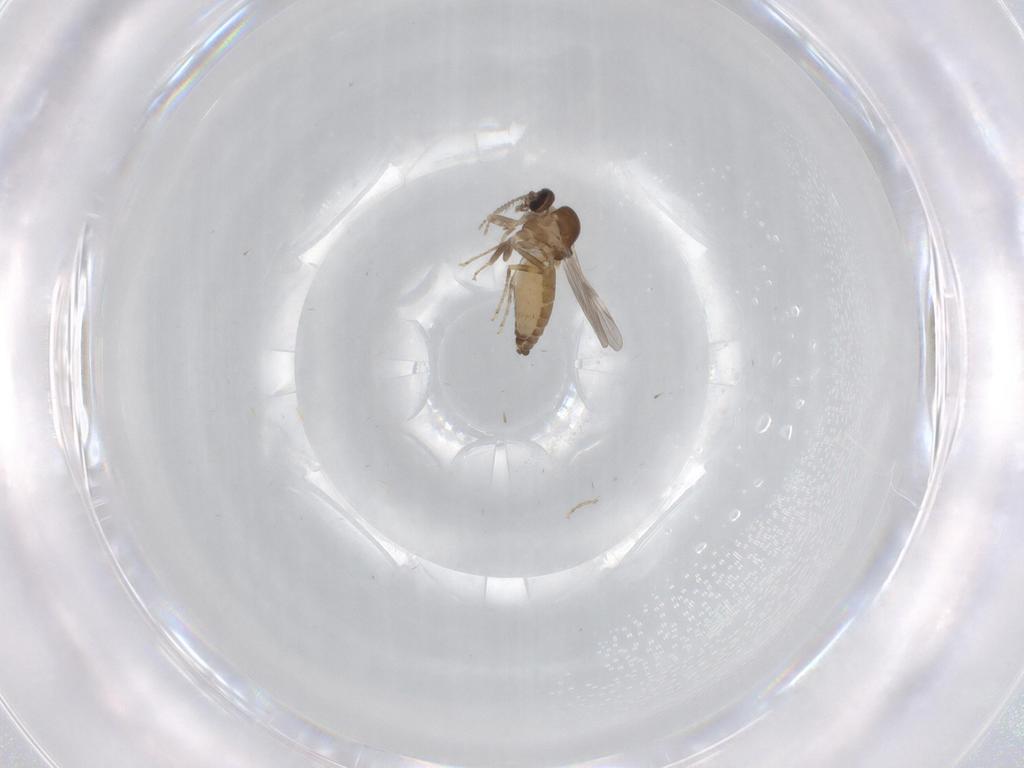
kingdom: Animalia
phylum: Arthropoda
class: Insecta
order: Diptera
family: Ceratopogonidae
